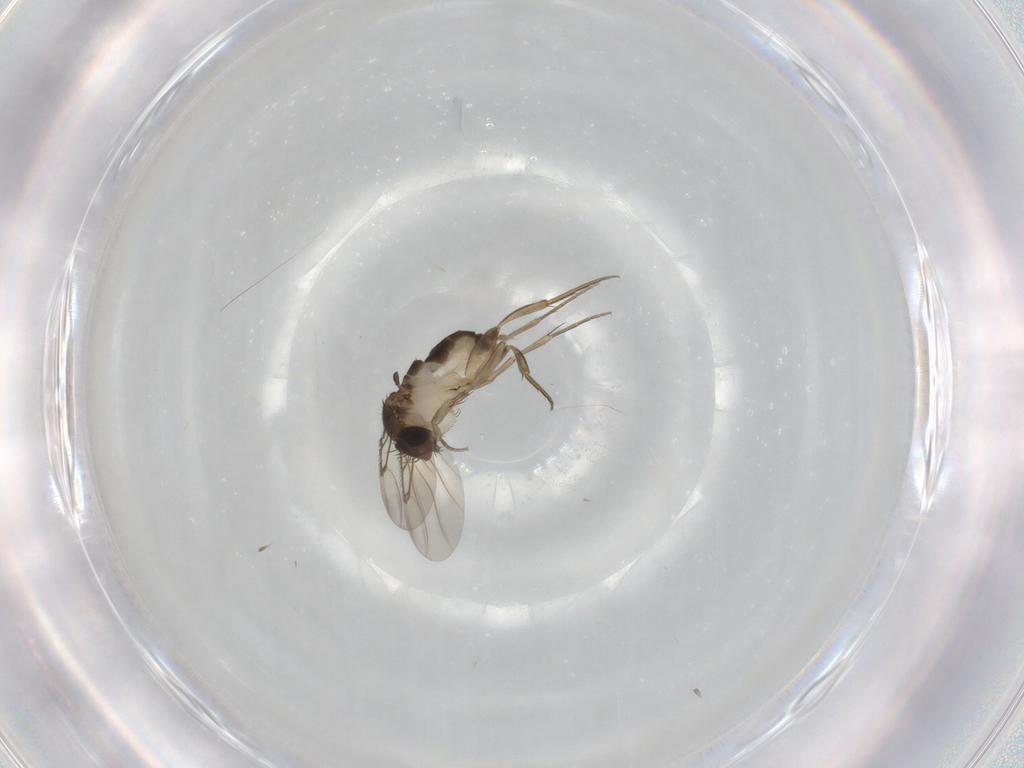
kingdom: Animalia
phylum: Arthropoda
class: Insecta
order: Diptera
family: Phoridae
